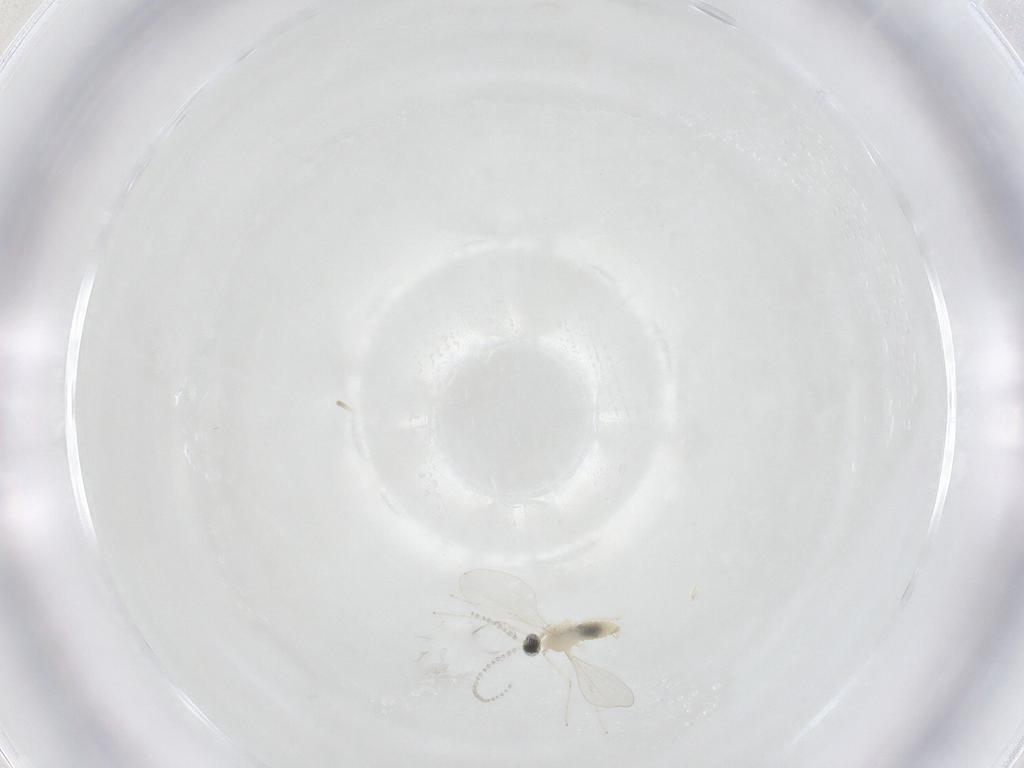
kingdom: Animalia
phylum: Arthropoda
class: Insecta
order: Diptera
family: Cecidomyiidae
